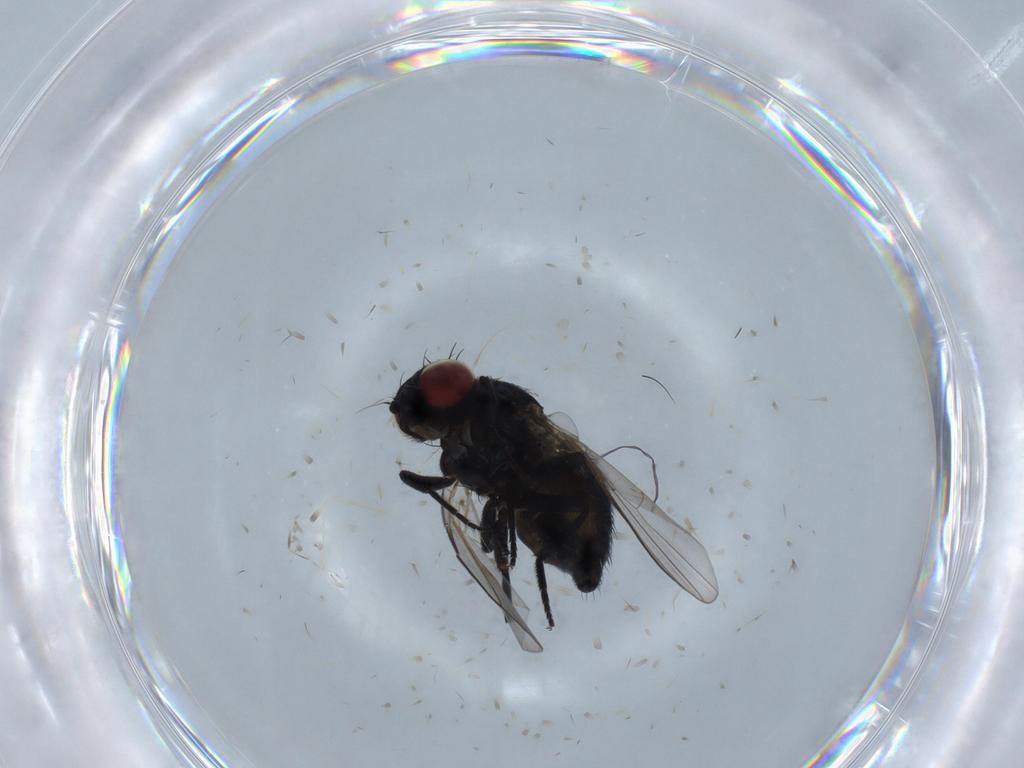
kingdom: Animalia
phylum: Arthropoda
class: Insecta
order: Diptera
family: Agromyzidae
